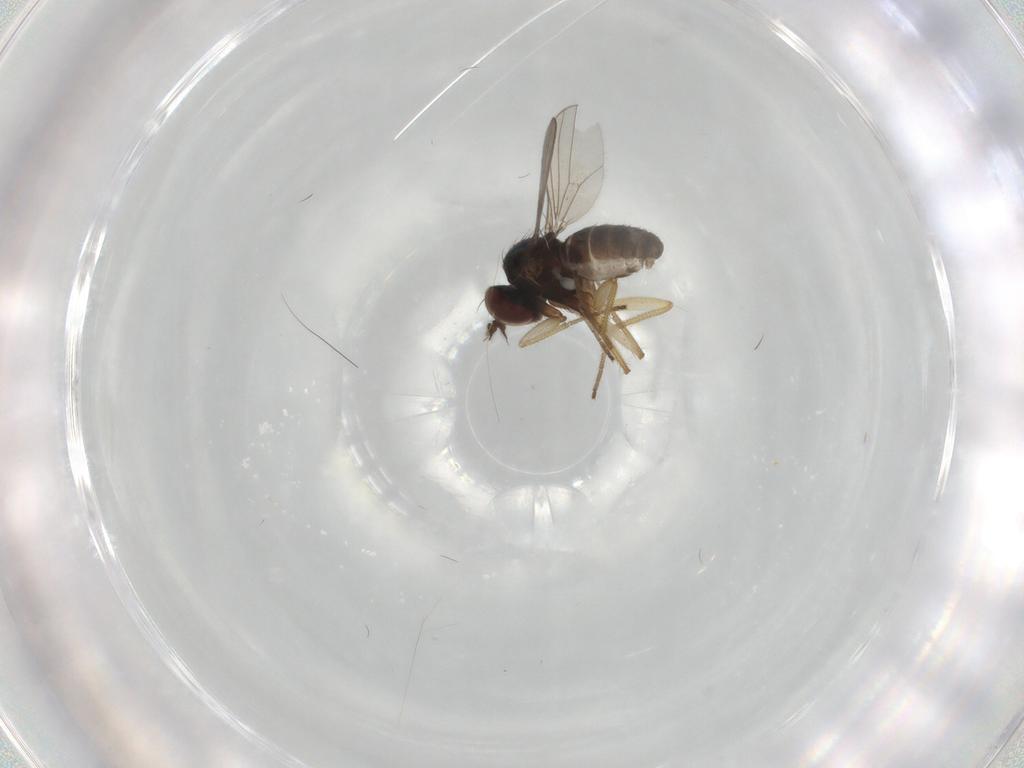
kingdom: Animalia
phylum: Arthropoda
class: Insecta
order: Diptera
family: Dolichopodidae
